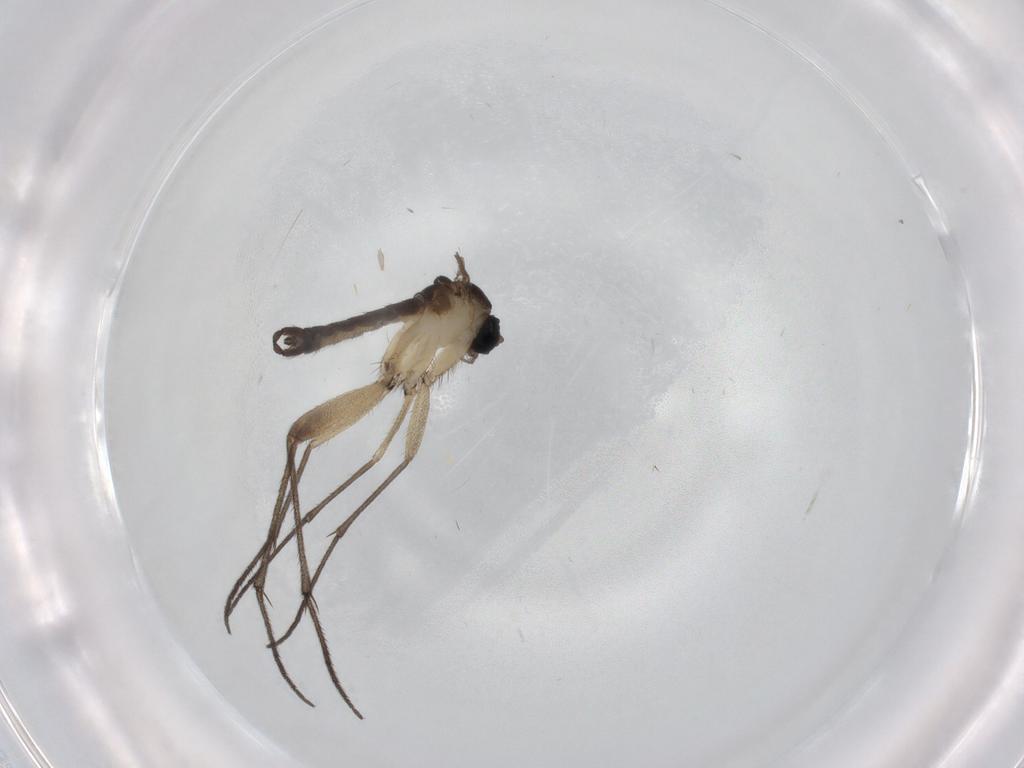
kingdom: Animalia
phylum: Arthropoda
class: Insecta
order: Diptera
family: Sciaridae
